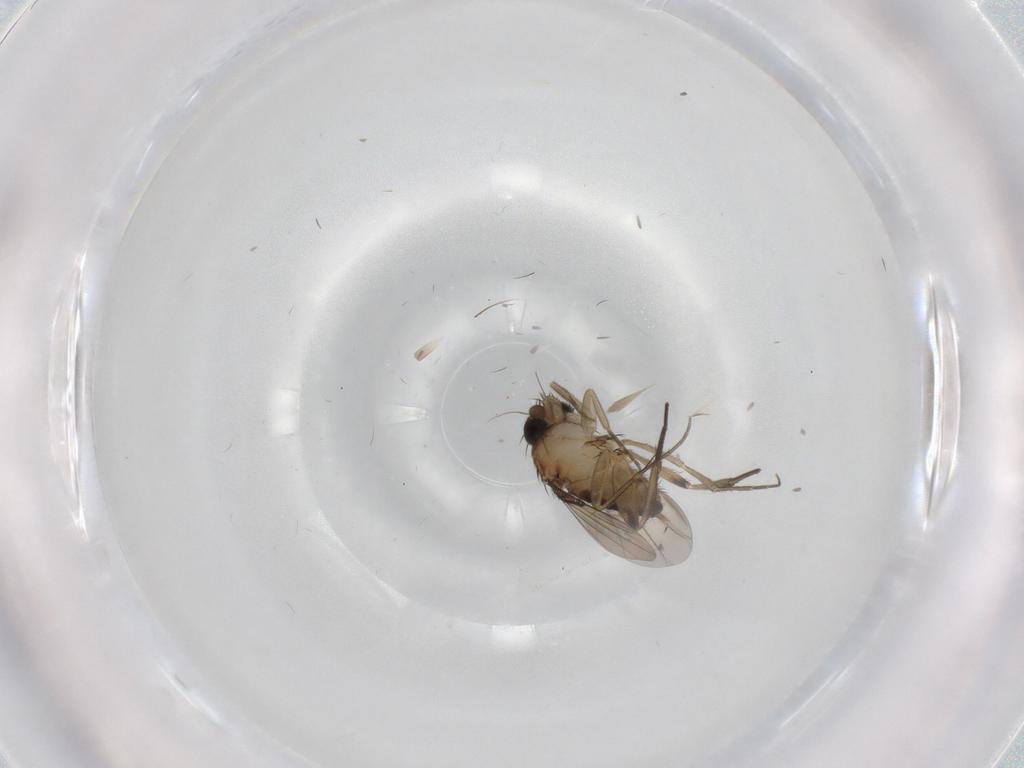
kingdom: Animalia
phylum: Arthropoda
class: Insecta
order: Diptera
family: Phoridae
